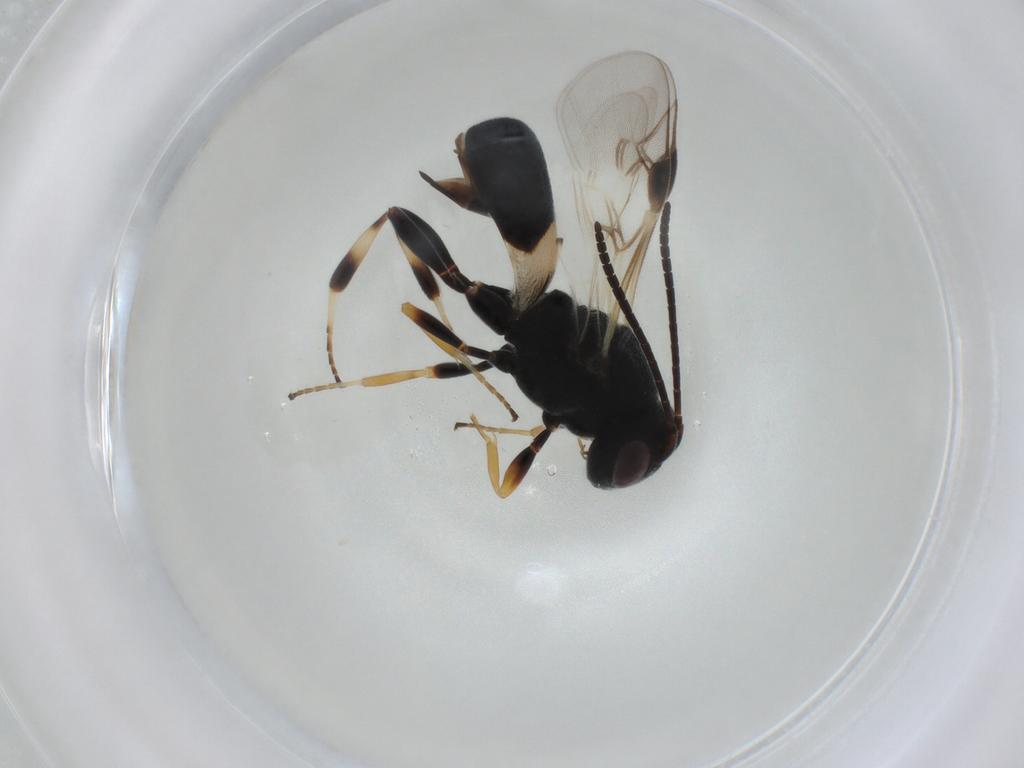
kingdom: Animalia
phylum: Arthropoda
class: Insecta
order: Hymenoptera
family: Braconidae
